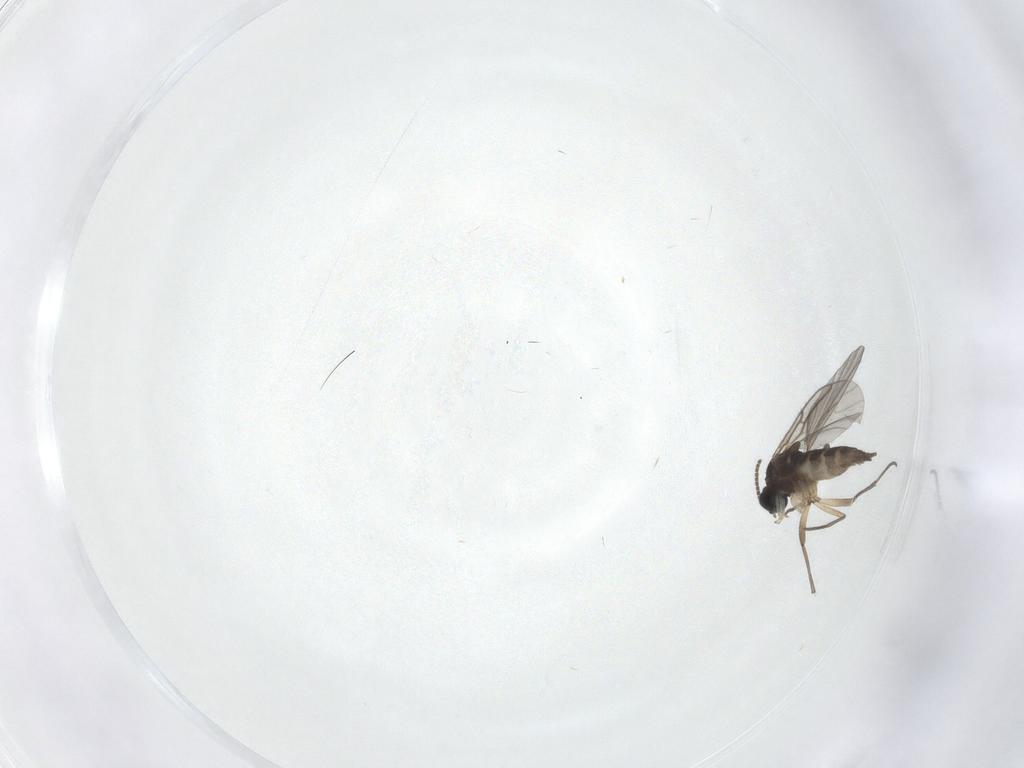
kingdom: Animalia
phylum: Arthropoda
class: Insecta
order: Diptera
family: Sciaridae
